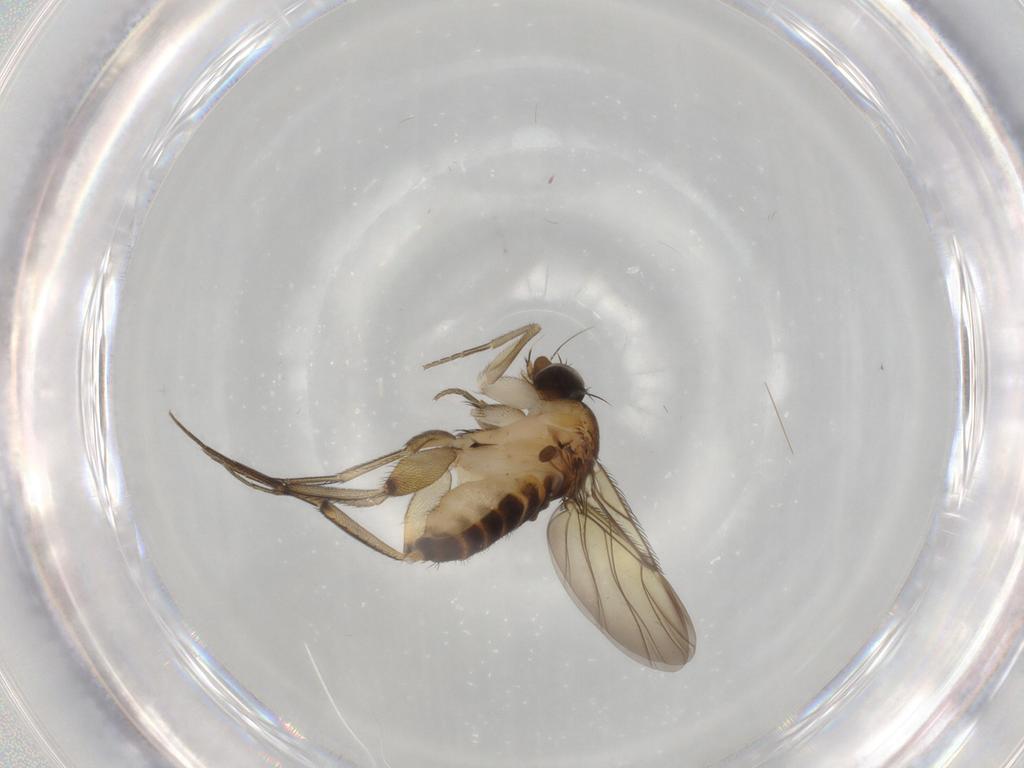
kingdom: Animalia
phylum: Arthropoda
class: Insecta
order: Diptera
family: Phoridae
